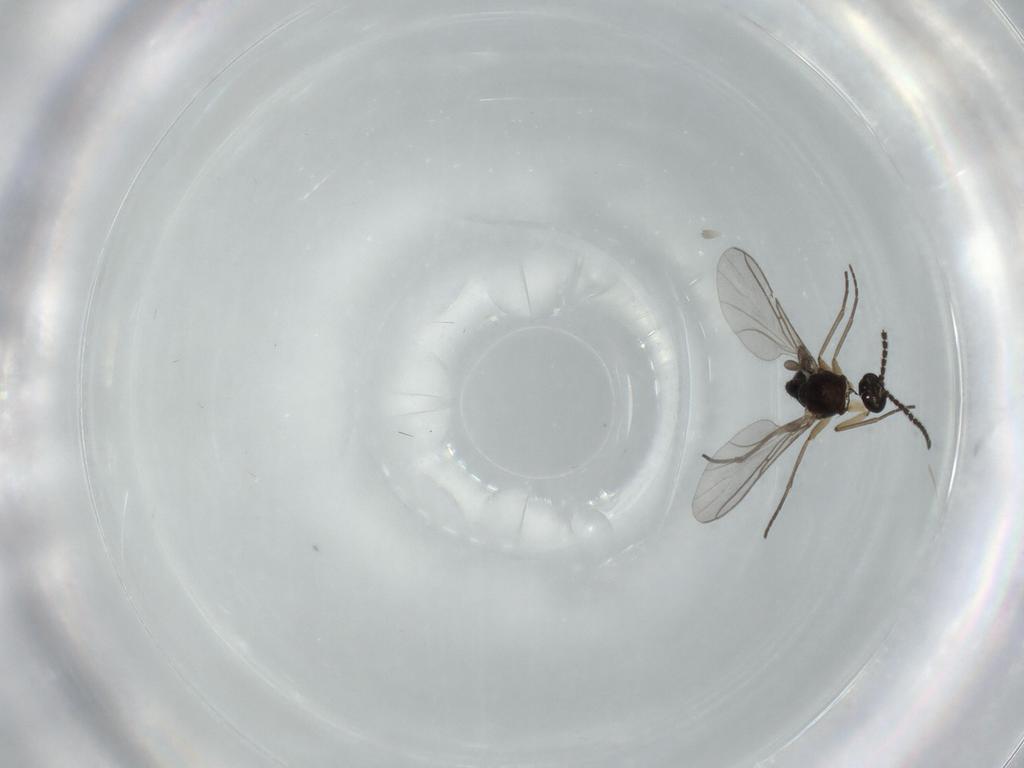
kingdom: Animalia
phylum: Arthropoda
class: Insecta
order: Diptera
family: Sciaridae
